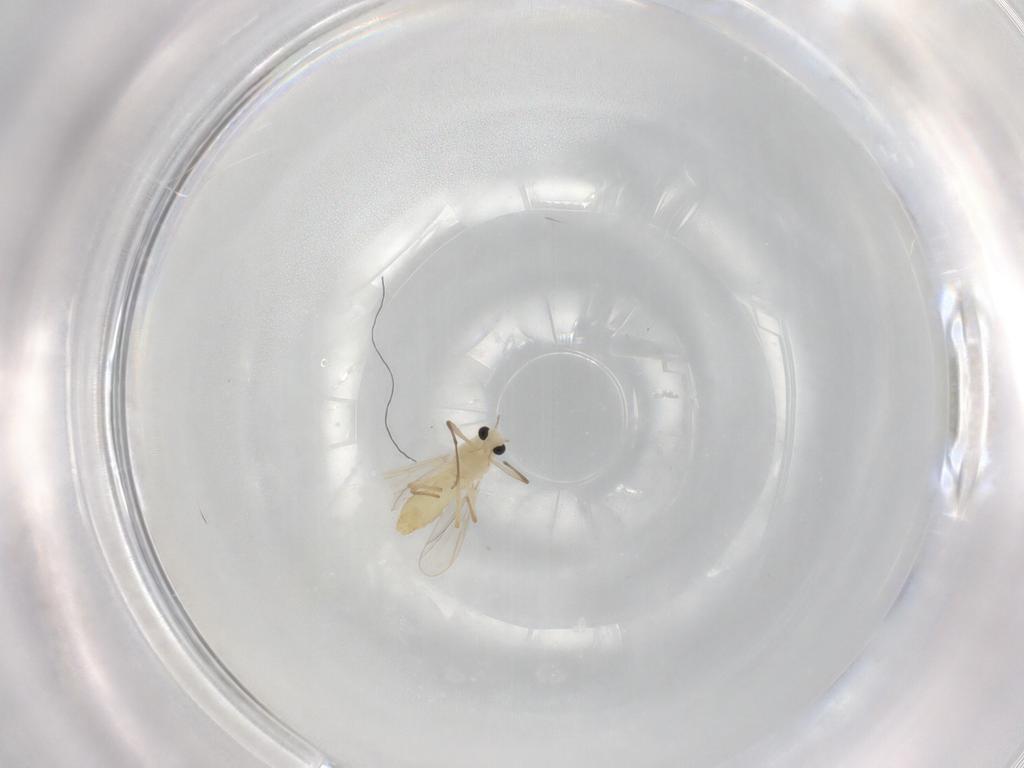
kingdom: Animalia
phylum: Arthropoda
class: Insecta
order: Diptera
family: Chironomidae
